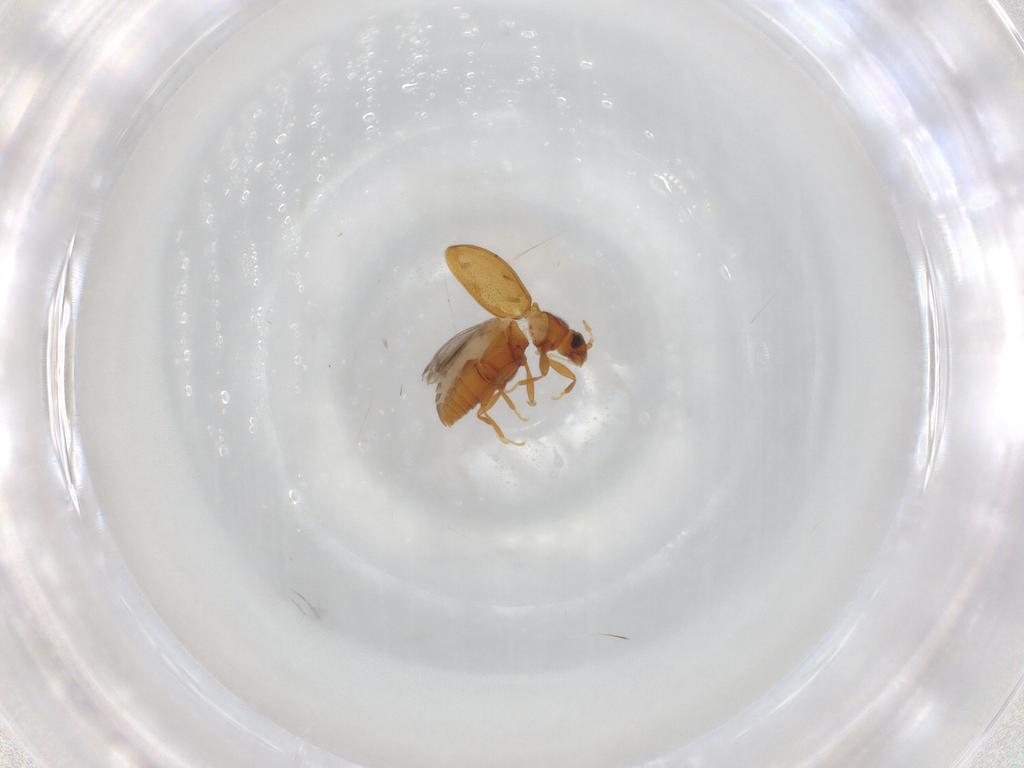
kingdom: Animalia
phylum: Arthropoda
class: Insecta
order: Coleoptera
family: Latridiidae
